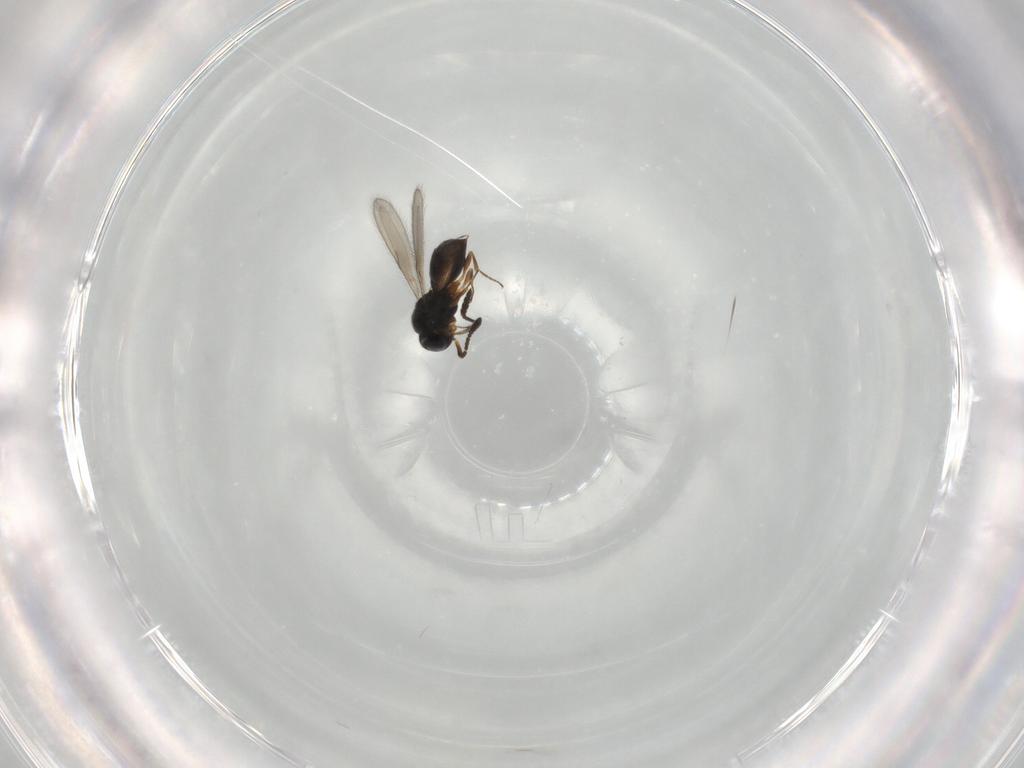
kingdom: Animalia
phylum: Arthropoda
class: Insecta
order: Hymenoptera
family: Scelionidae
